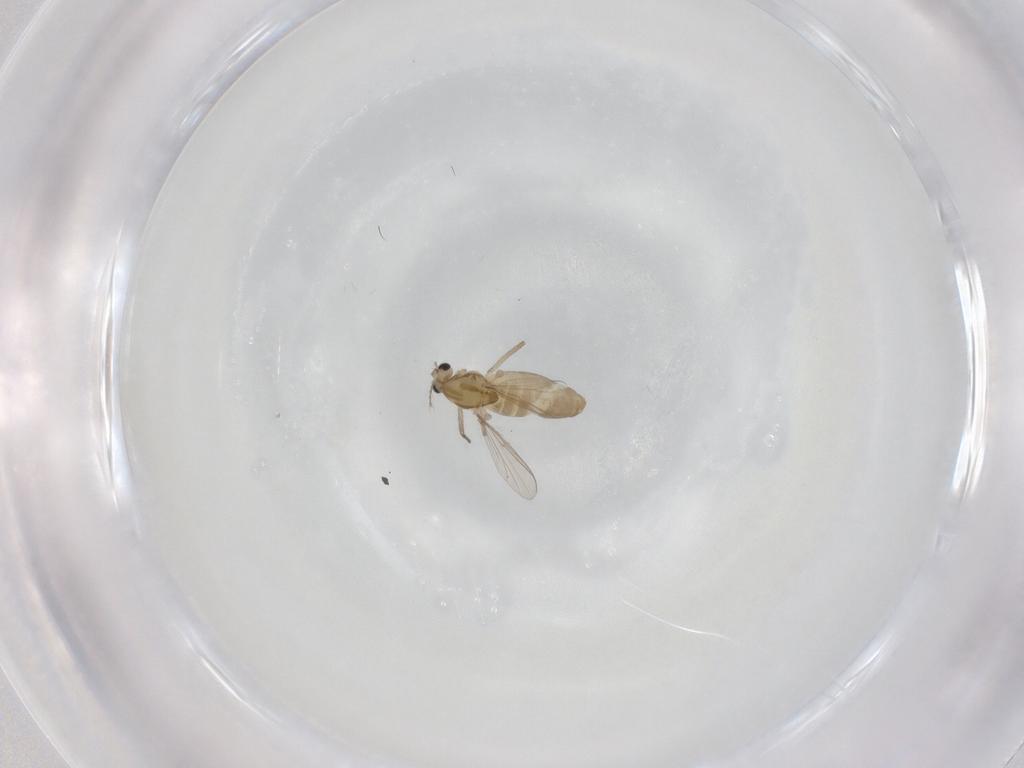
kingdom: Animalia
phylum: Arthropoda
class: Insecta
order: Diptera
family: Chironomidae
